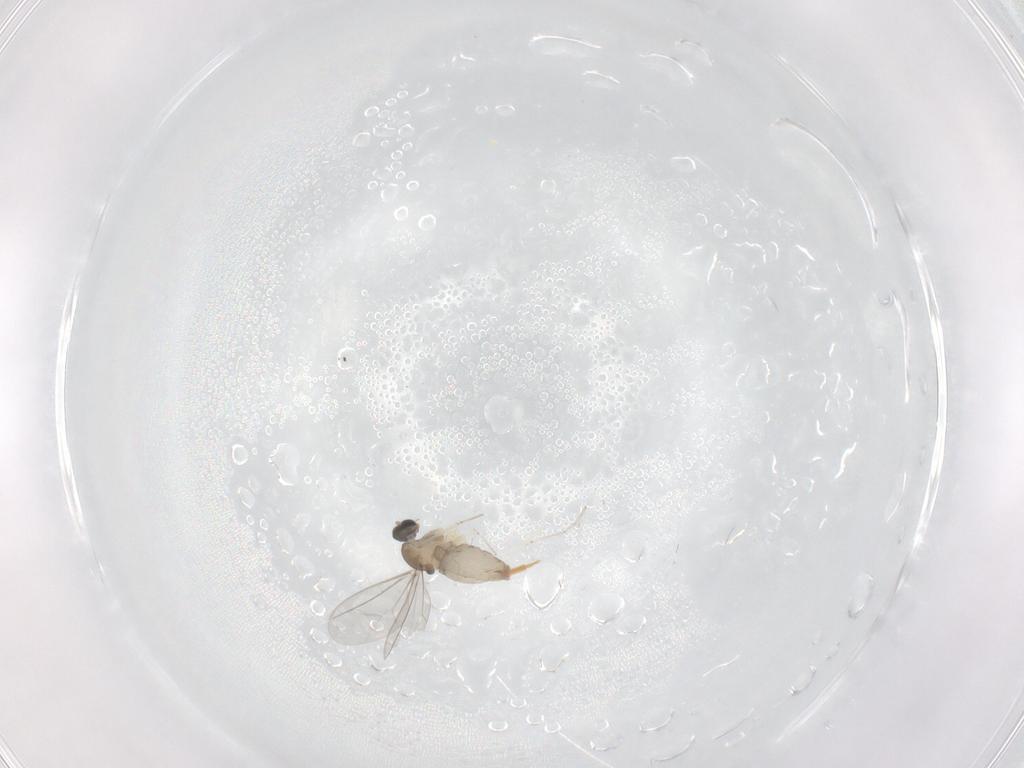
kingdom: Animalia
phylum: Arthropoda
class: Insecta
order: Diptera
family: Cecidomyiidae
